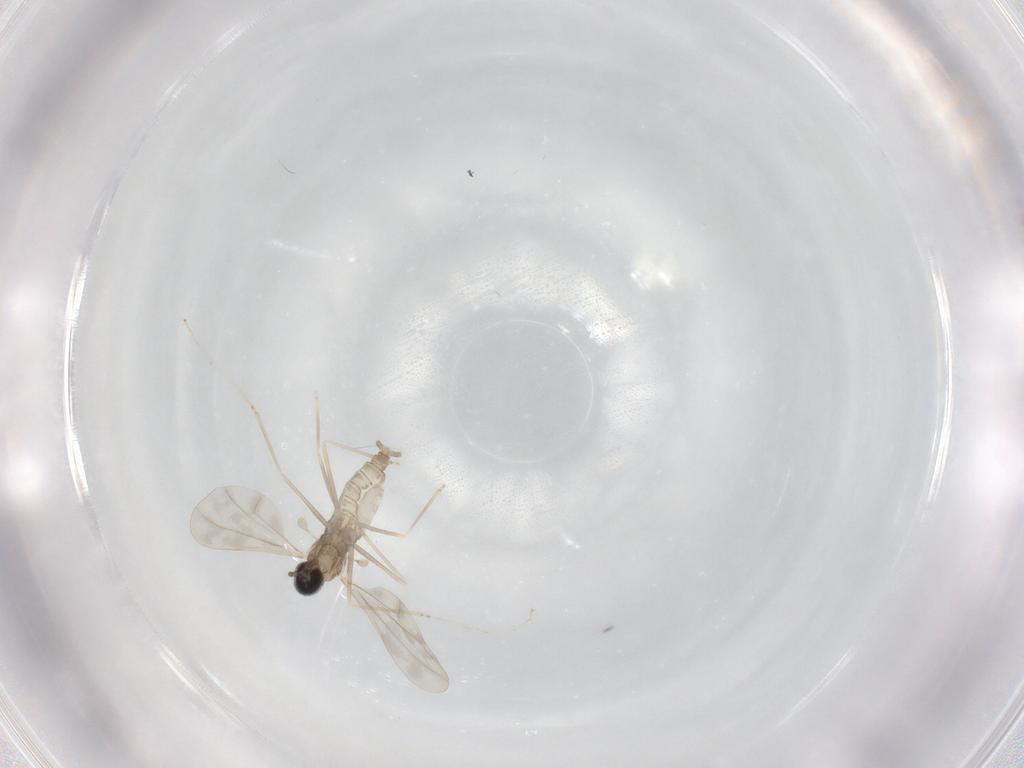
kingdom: Animalia
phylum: Arthropoda
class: Insecta
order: Diptera
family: Cecidomyiidae
